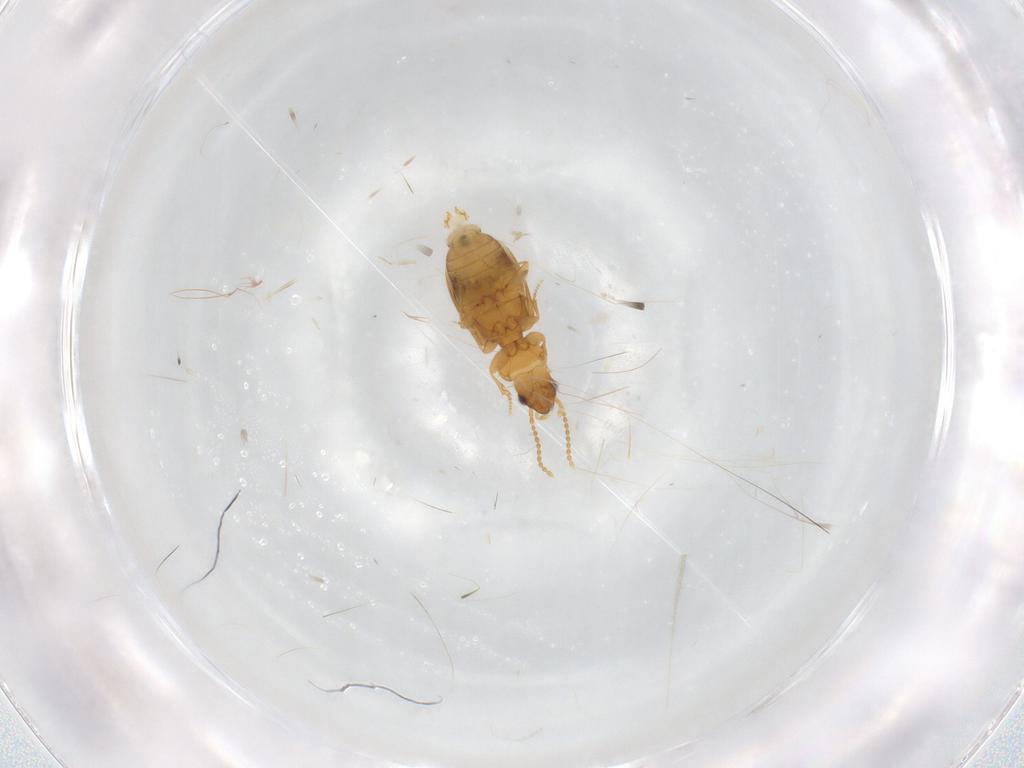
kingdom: Animalia
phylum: Arthropoda
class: Insecta
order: Coleoptera
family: Carabidae
